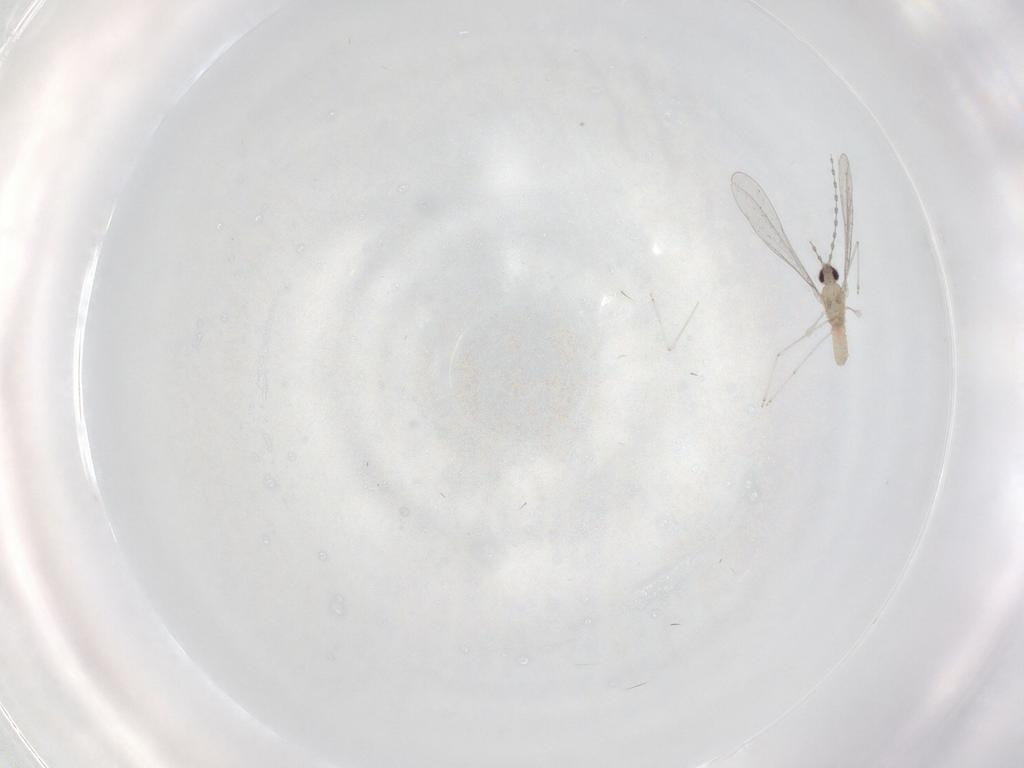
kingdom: Animalia
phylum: Arthropoda
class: Insecta
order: Diptera
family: Cecidomyiidae
